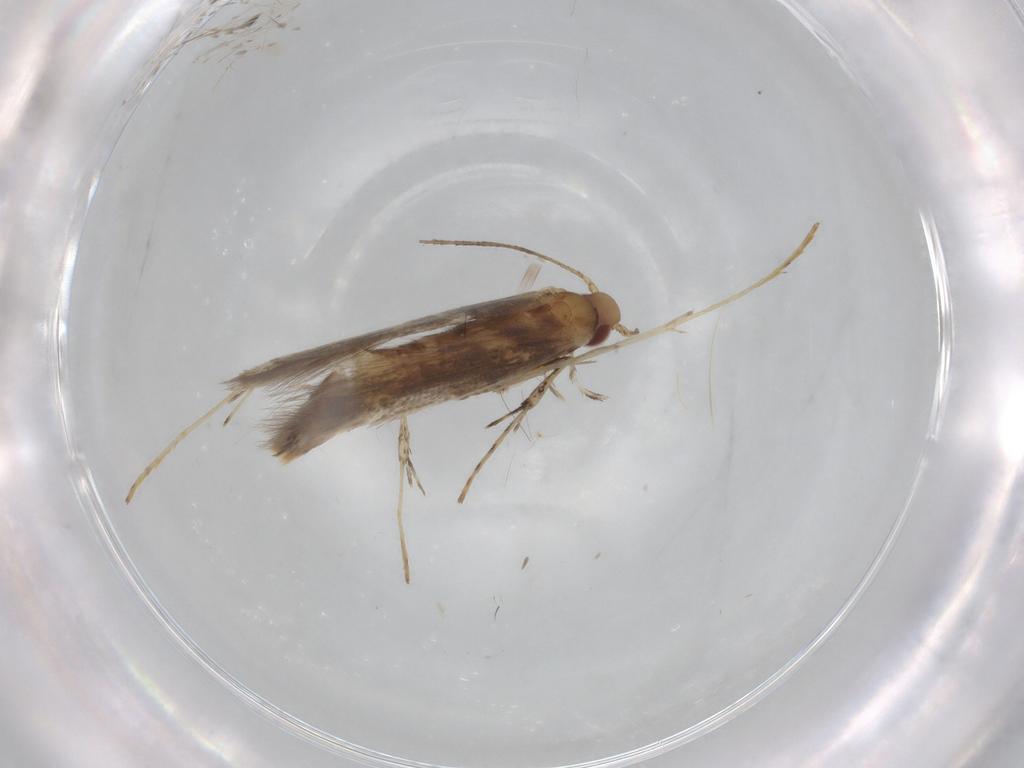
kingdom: Animalia
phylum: Arthropoda
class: Insecta
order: Lepidoptera
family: Gracillariidae
